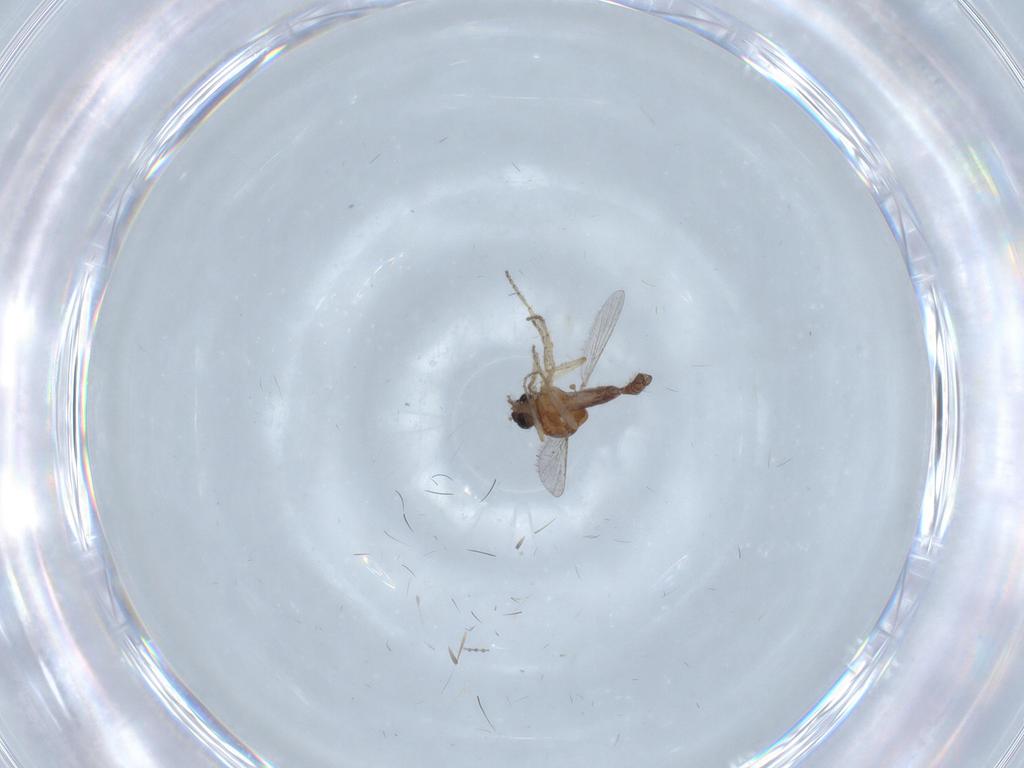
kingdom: Animalia
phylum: Arthropoda
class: Insecta
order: Diptera
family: Ceratopogonidae
